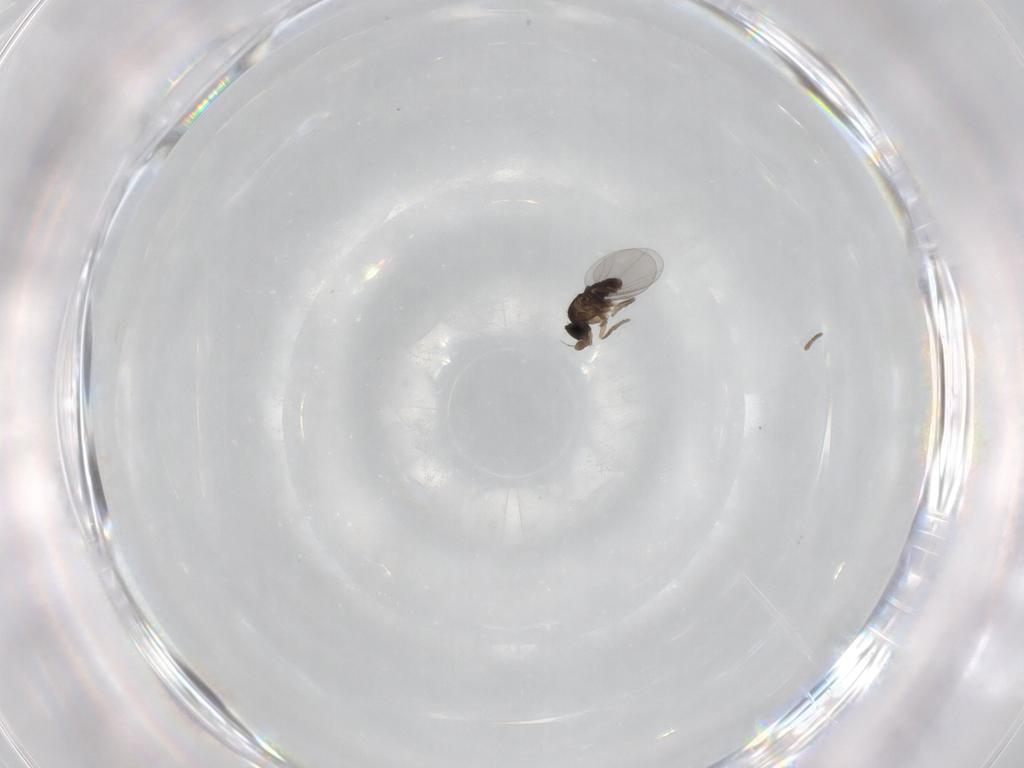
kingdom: Animalia
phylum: Arthropoda
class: Insecta
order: Diptera
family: Phoridae
